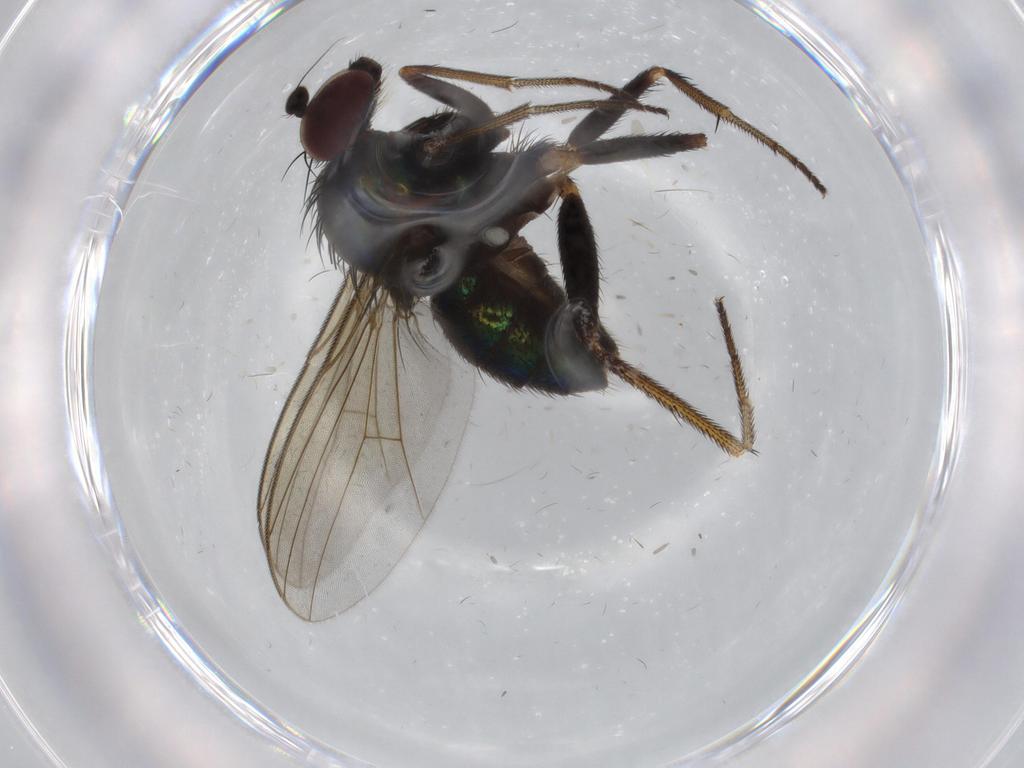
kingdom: Animalia
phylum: Arthropoda
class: Insecta
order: Diptera
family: Dolichopodidae
